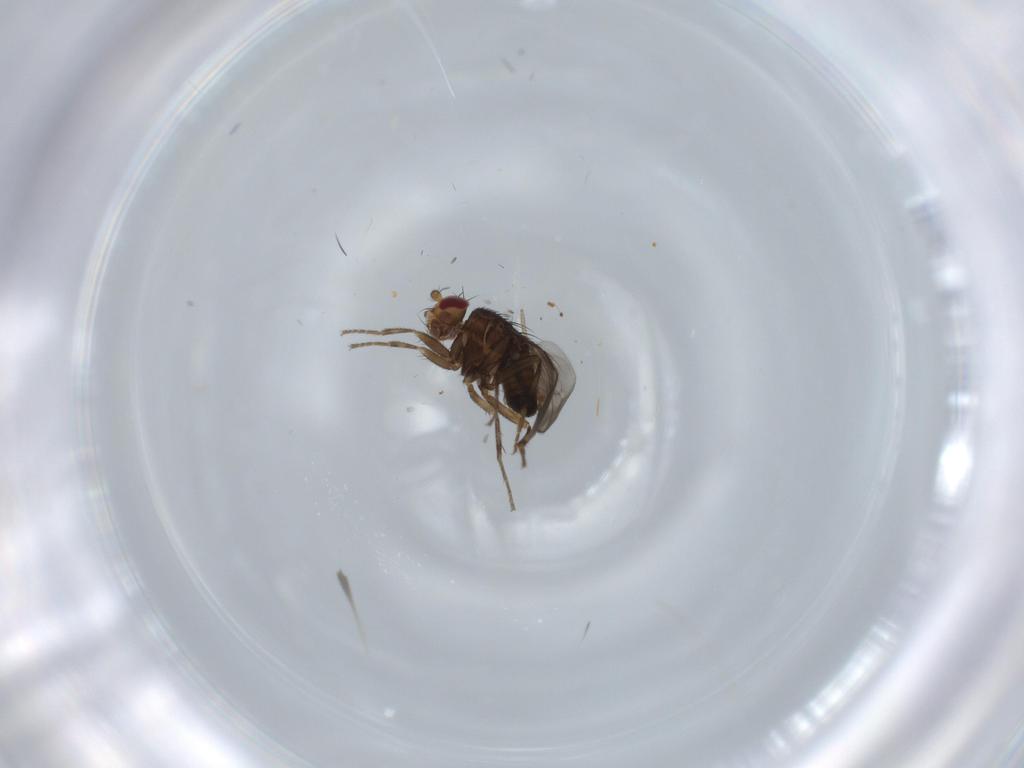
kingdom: Animalia
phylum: Arthropoda
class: Insecta
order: Diptera
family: Sphaeroceridae
